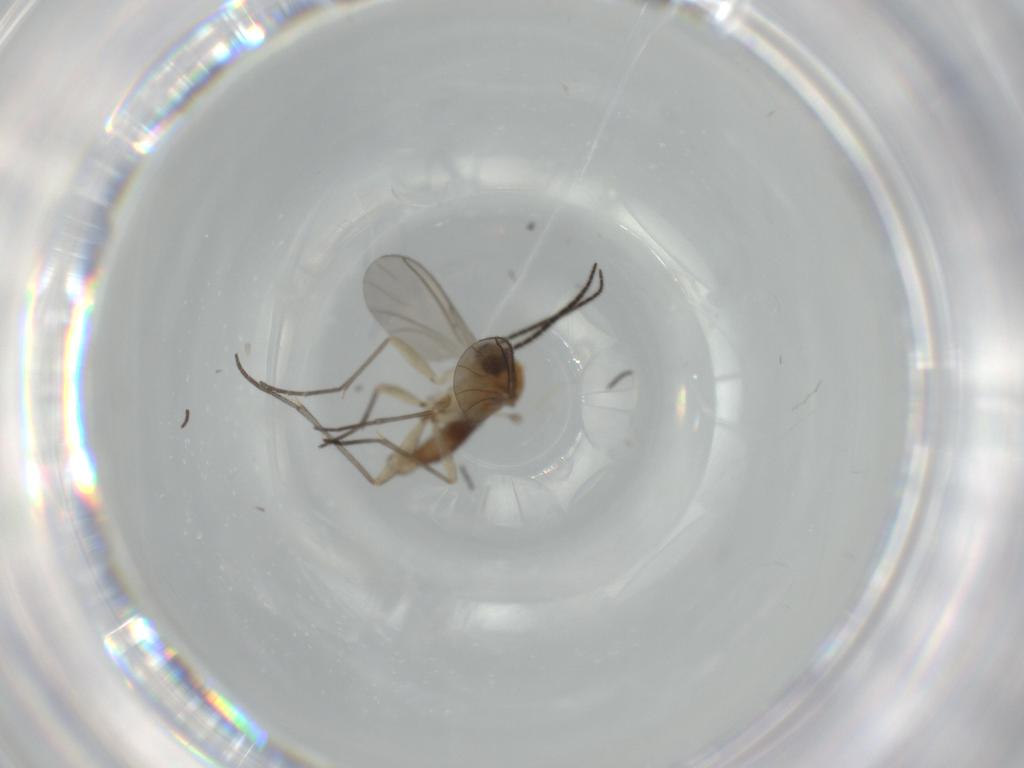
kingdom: Animalia
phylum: Arthropoda
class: Insecta
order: Diptera
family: Sciaridae
